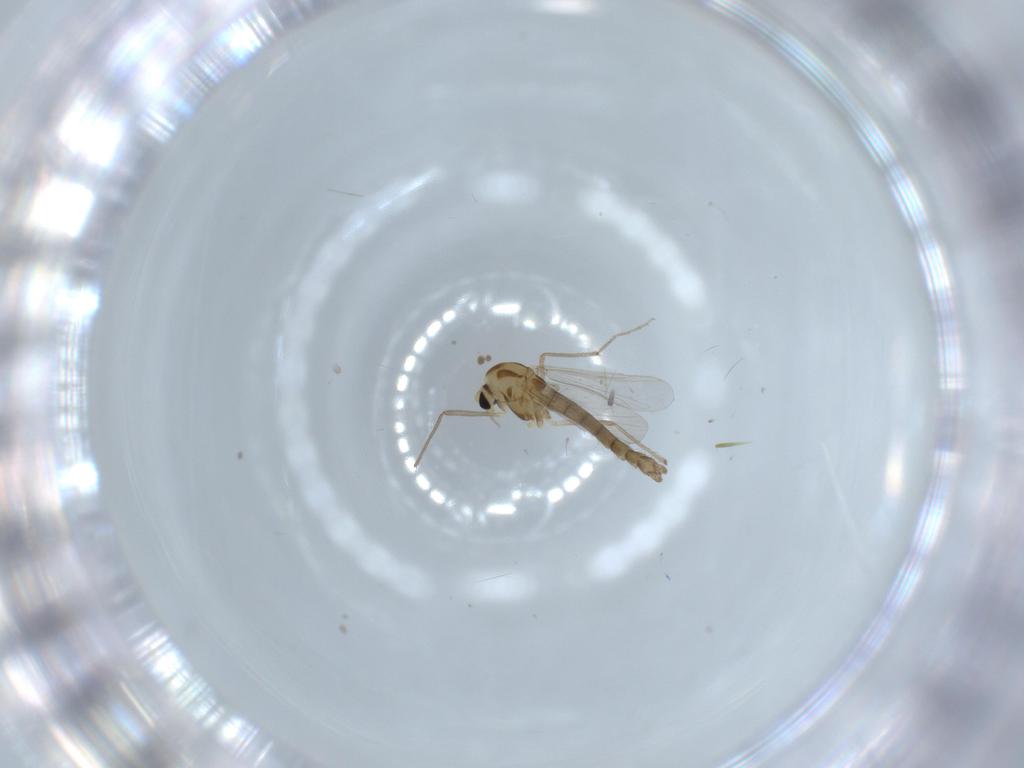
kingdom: Animalia
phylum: Arthropoda
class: Insecta
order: Diptera
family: Chironomidae
